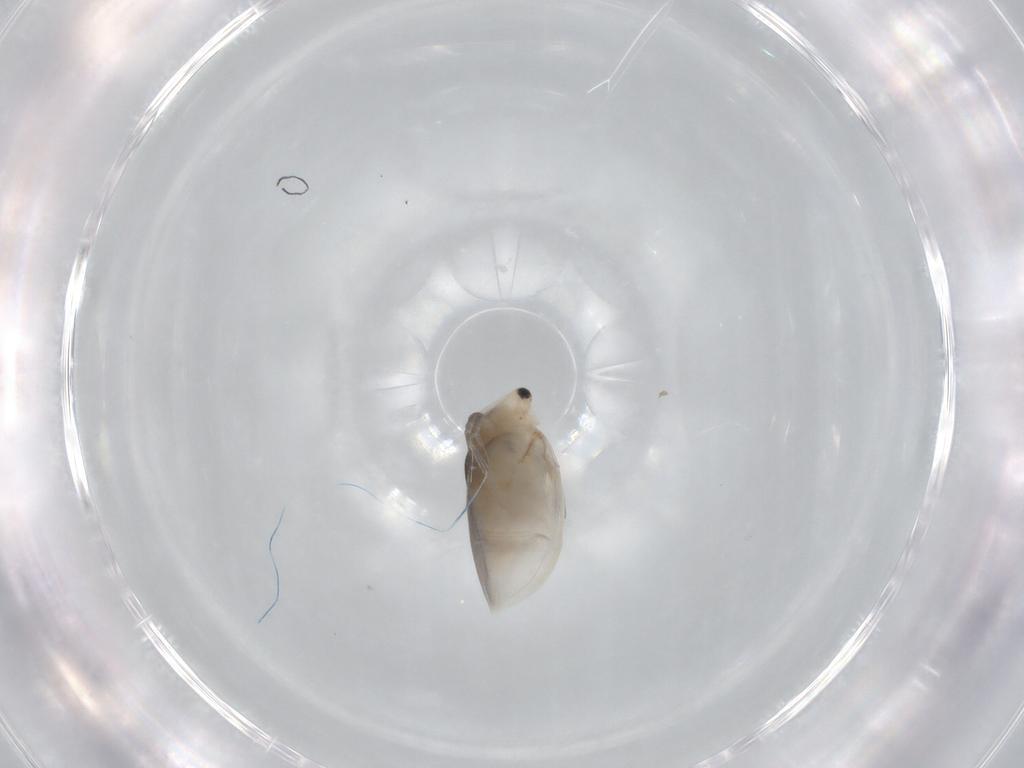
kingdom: Animalia
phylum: Arthropoda
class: Branchiopoda
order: Diplostraca
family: Daphniidae
